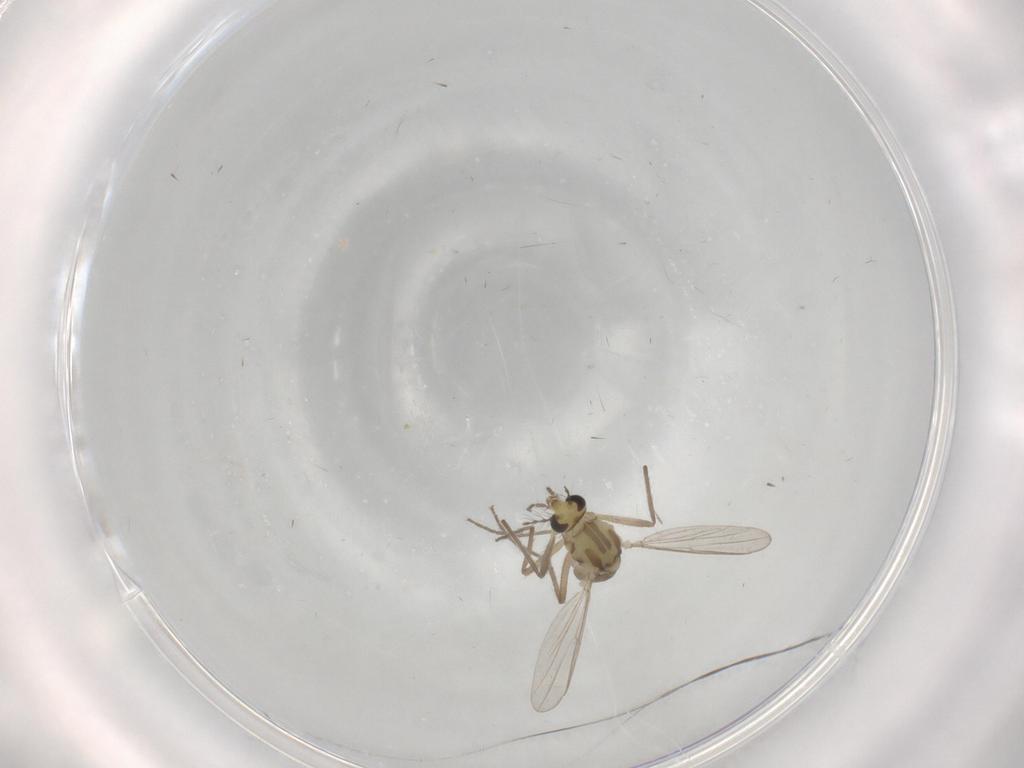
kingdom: Animalia
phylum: Arthropoda
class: Insecta
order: Diptera
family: Chironomidae
